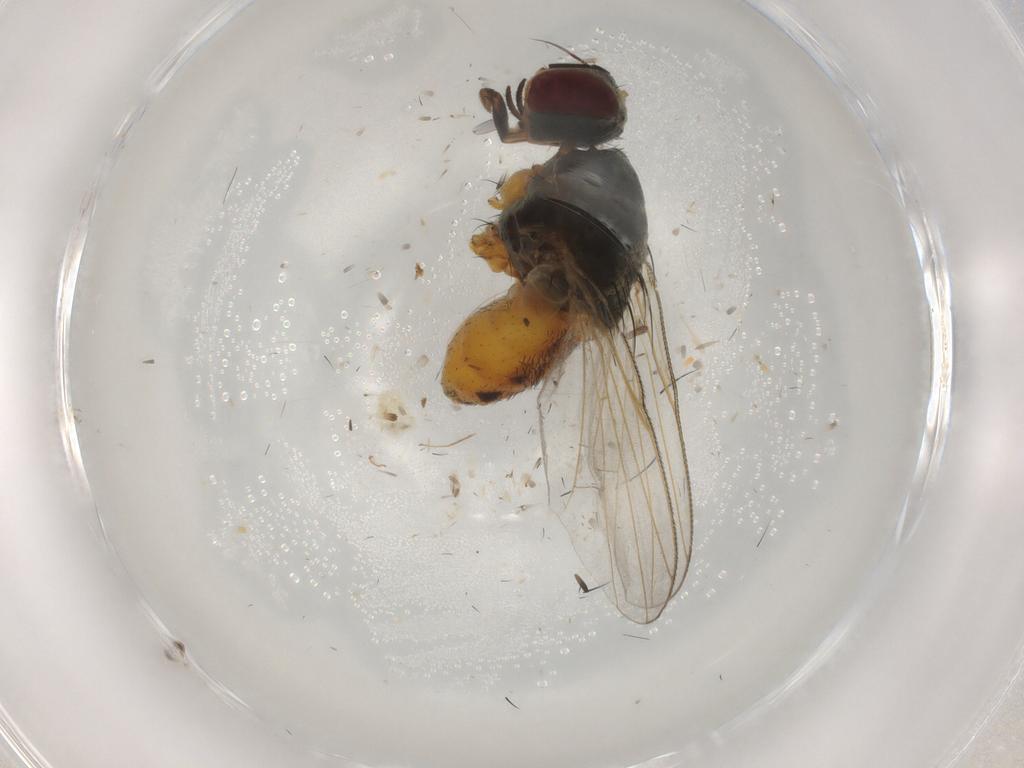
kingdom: Animalia
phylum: Arthropoda
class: Insecta
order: Diptera
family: Muscidae
